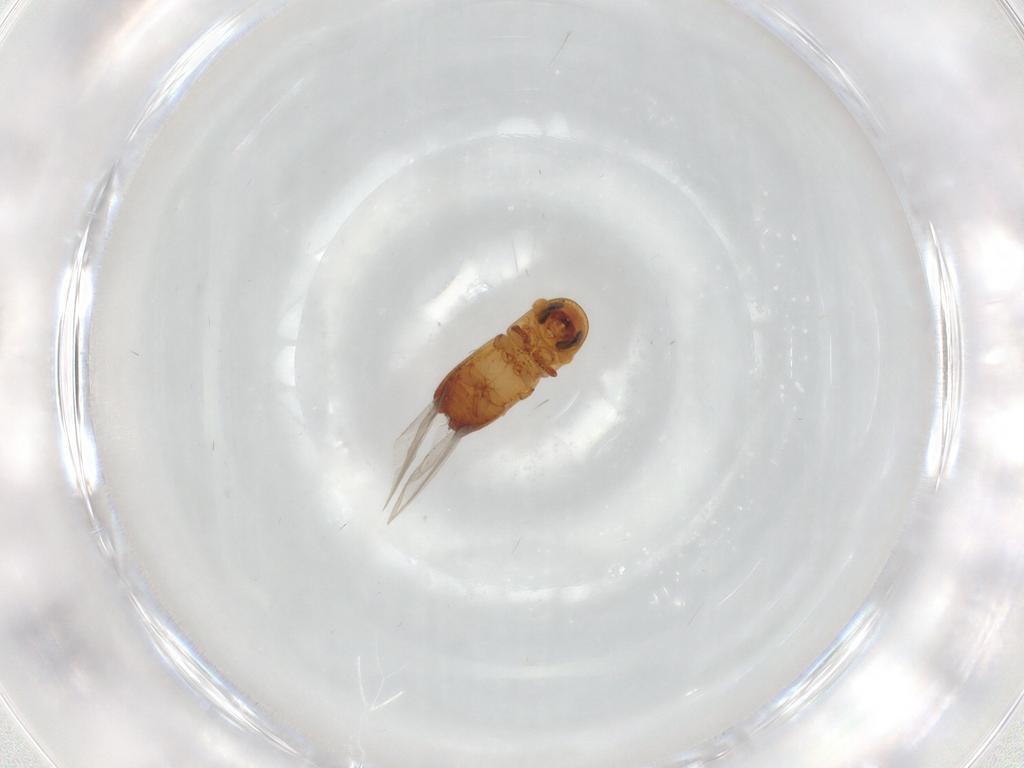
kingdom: Animalia
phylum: Arthropoda
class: Insecta
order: Coleoptera
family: Curculionidae
